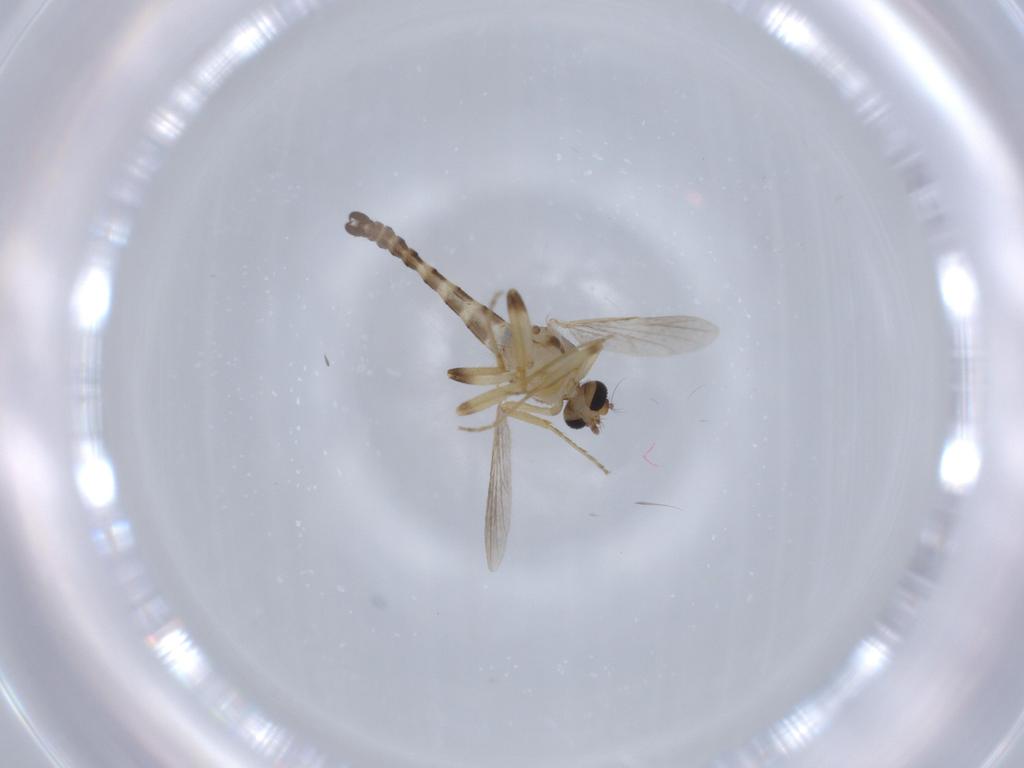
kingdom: Animalia
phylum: Arthropoda
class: Insecta
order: Diptera
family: Ceratopogonidae
